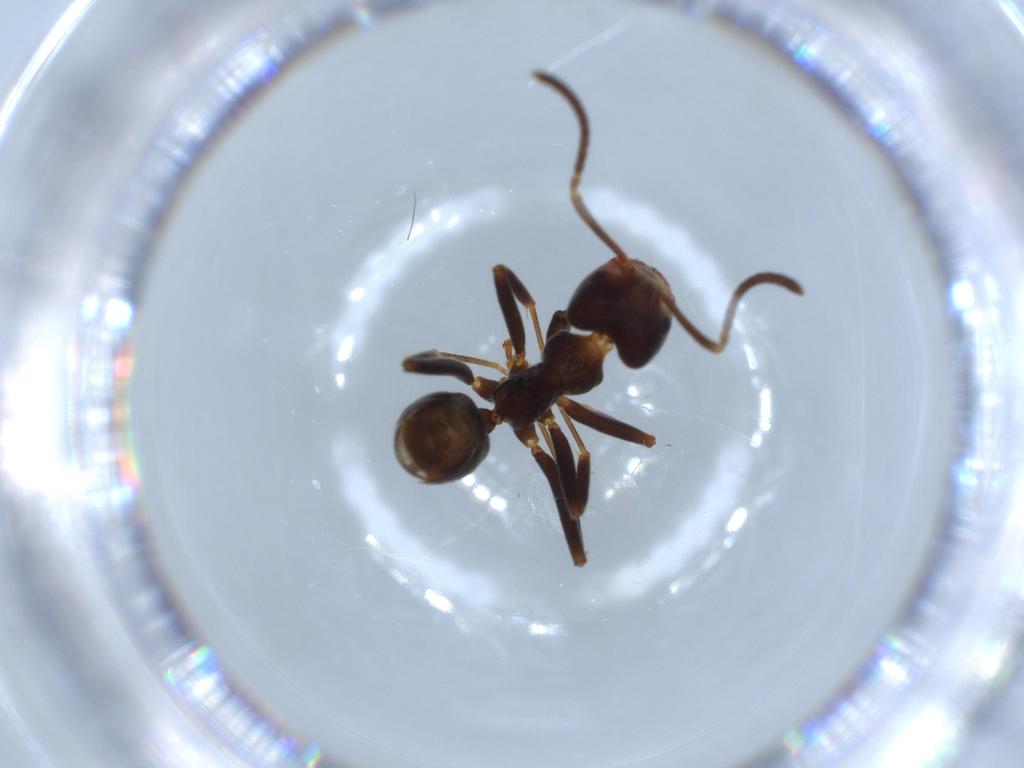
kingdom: Animalia
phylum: Arthropoda
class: Insecta
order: Hymenoptera
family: Formicidae
